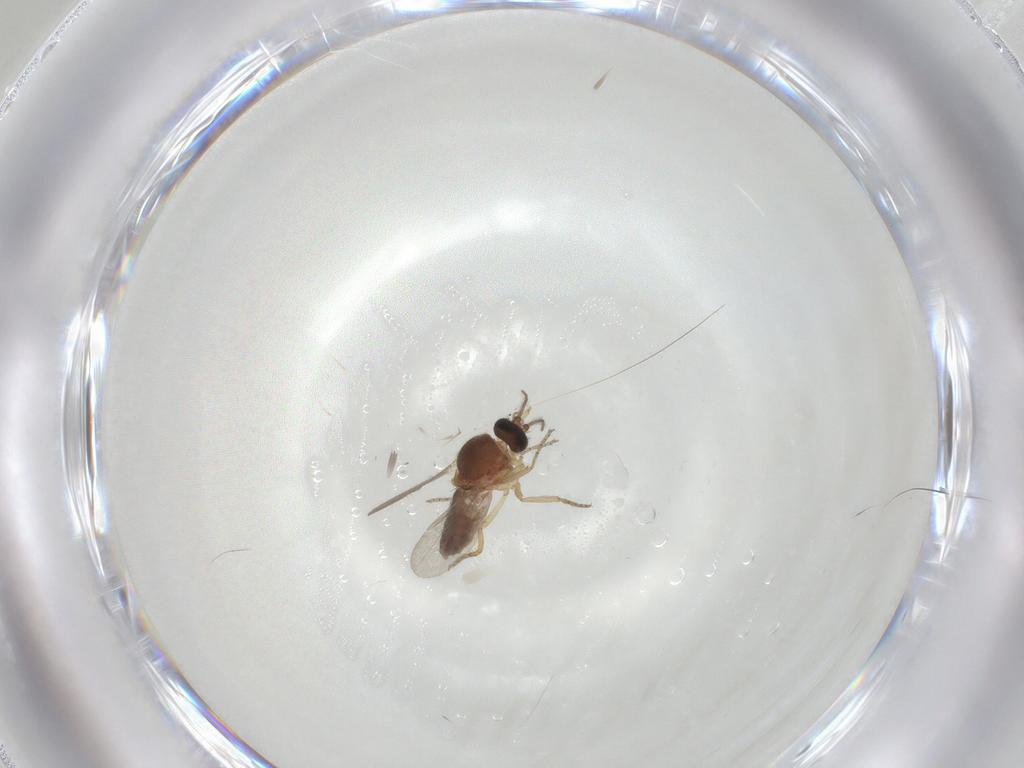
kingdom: Animalia
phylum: Arthropoda
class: Insecta
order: Diptera
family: Ceratopogonidae
